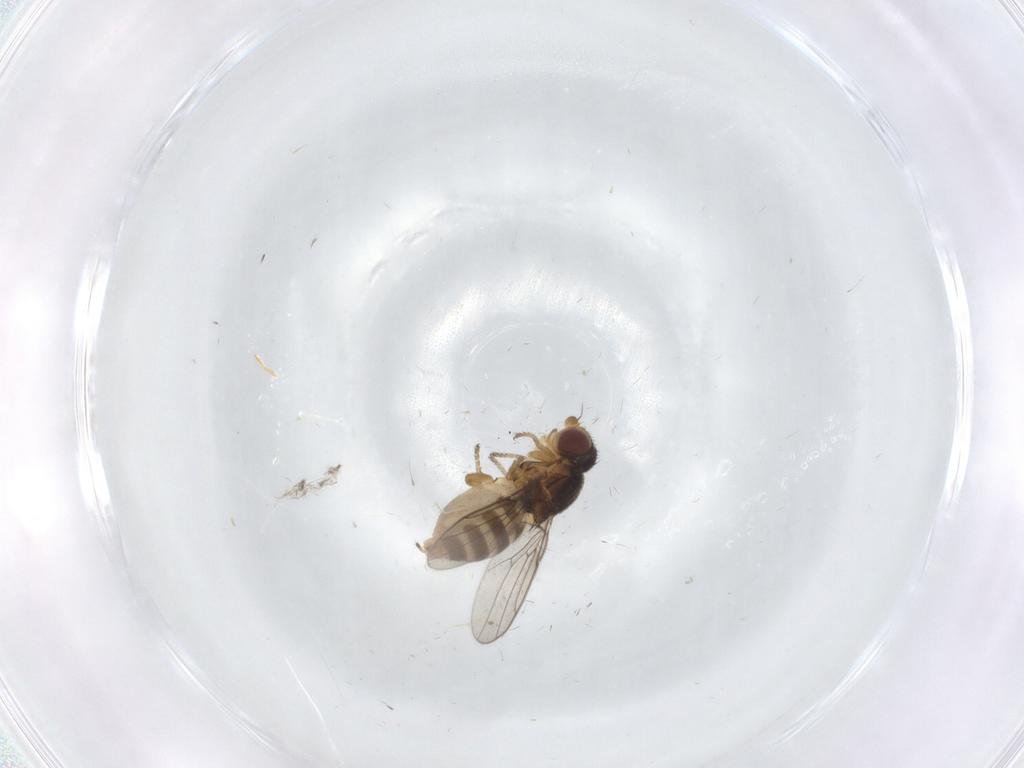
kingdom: Animalia
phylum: Arthropoda
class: Insecta
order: Diptera
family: Chloropidae
